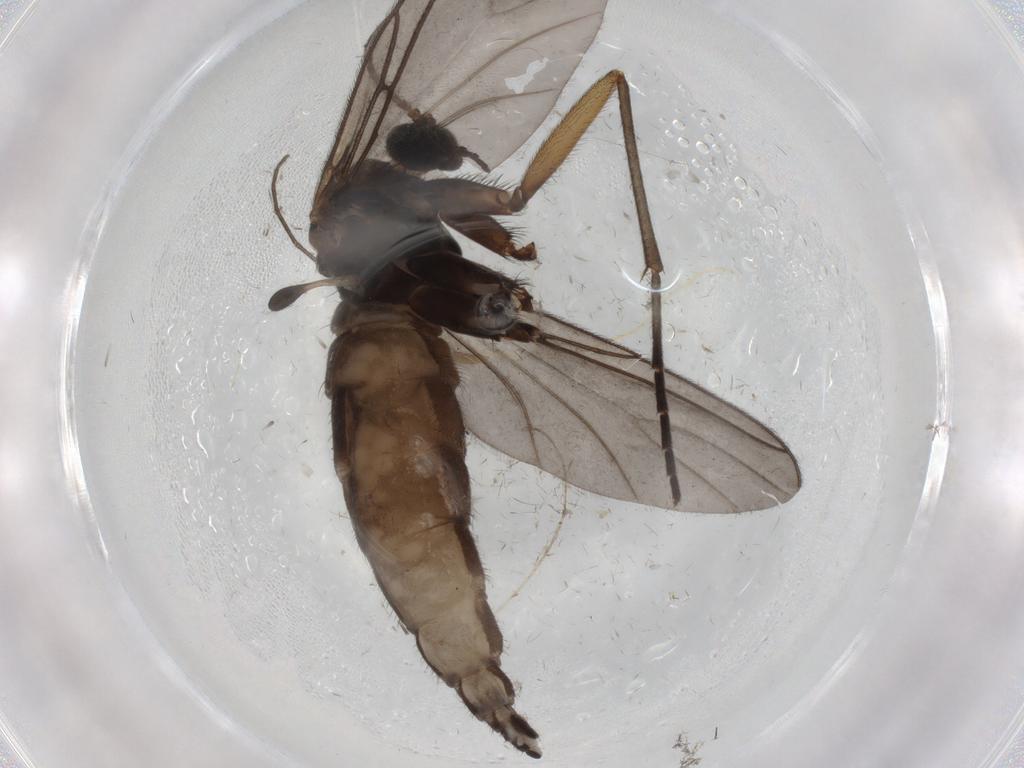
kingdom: Animalia
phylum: Arthropoda
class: Insecta
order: Diptera
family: Sciaridae
